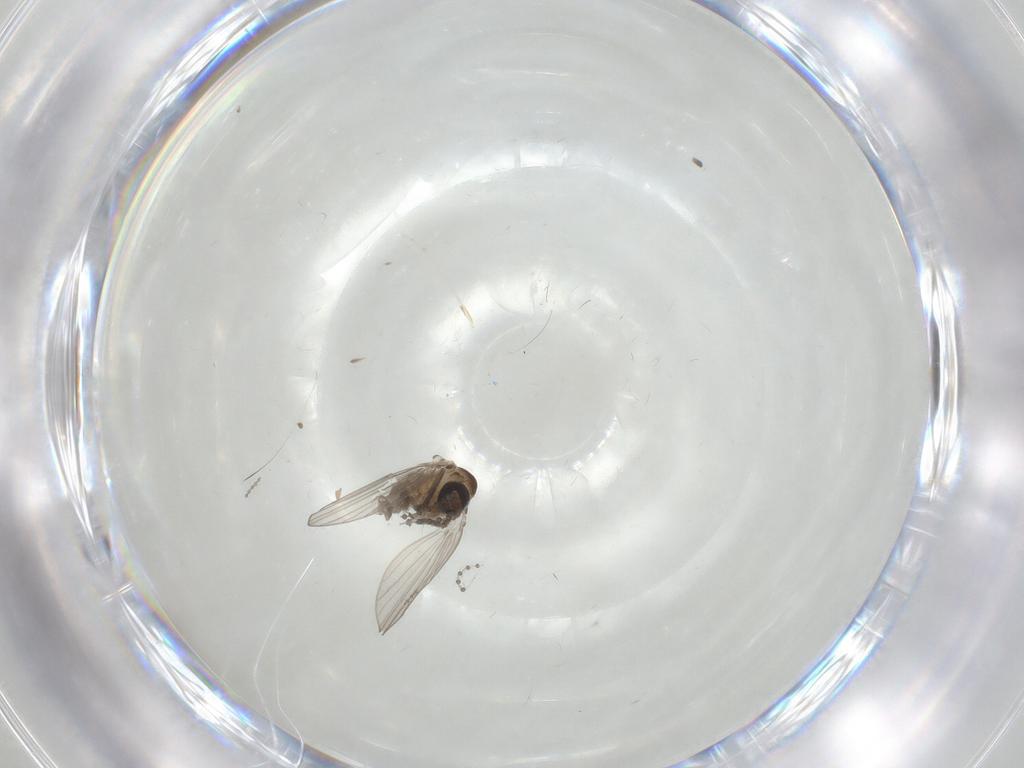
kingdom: Animalia
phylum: Arthropoda
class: Insecta
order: Diptera
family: Psychodidae
